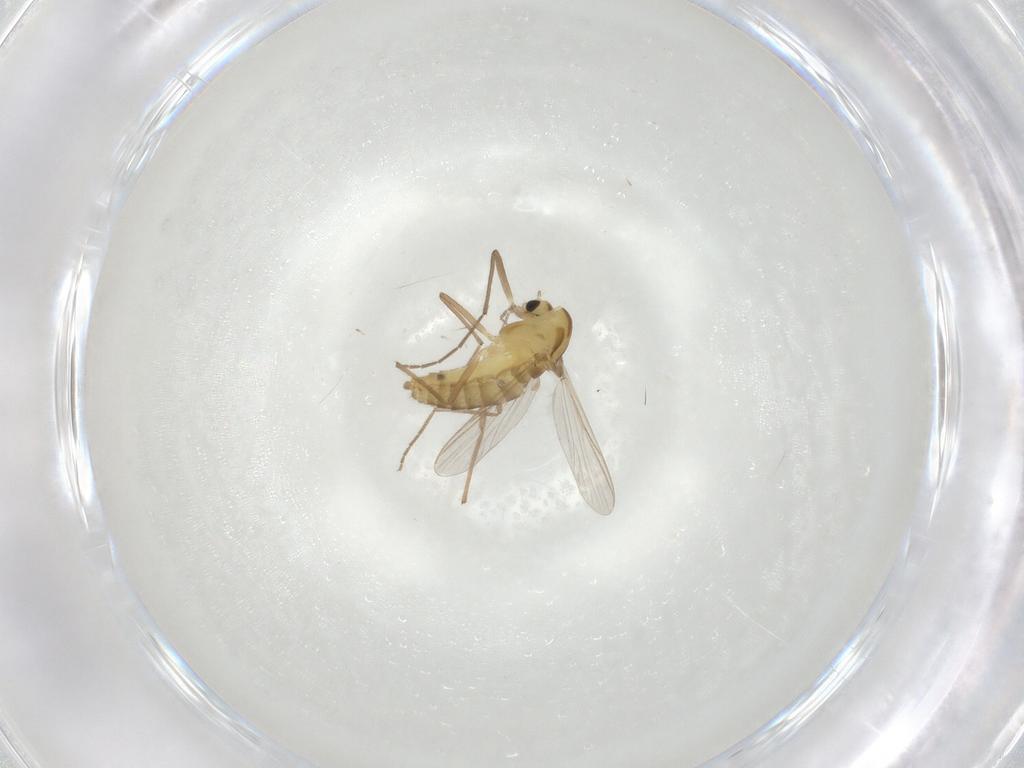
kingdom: Animalia
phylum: Arthropoda
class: Insecta
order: Diptera
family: Chironomidae
